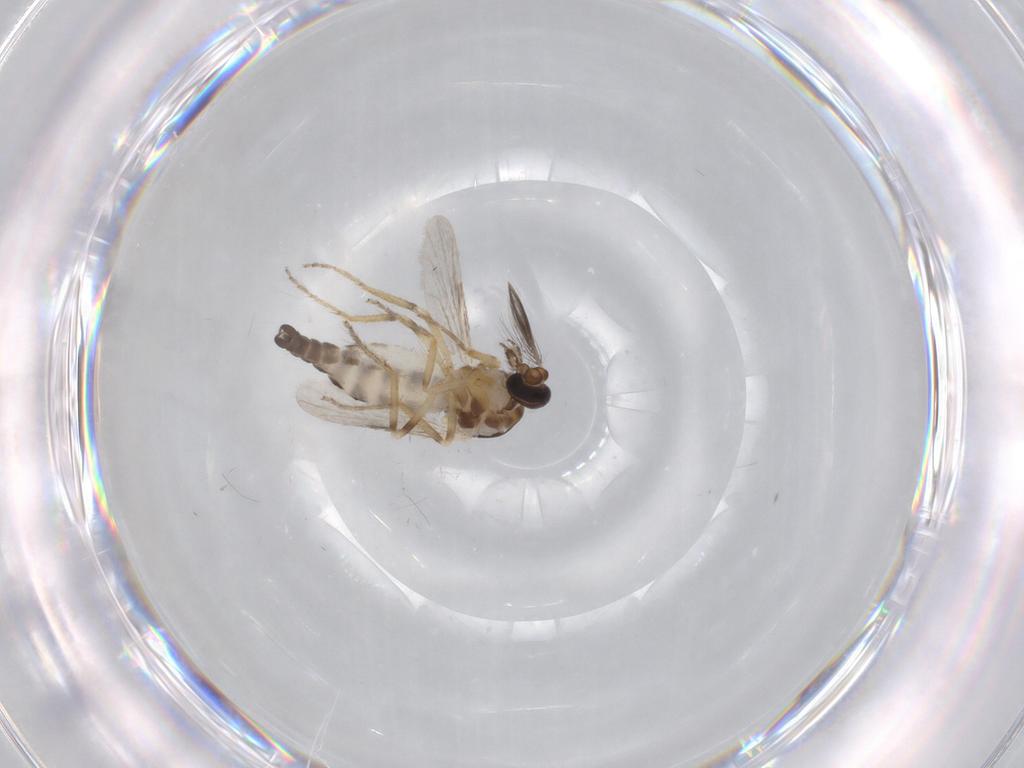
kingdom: Animalia
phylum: Arthropoda
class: Insecta
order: Diptera
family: Ceratopogonidae
